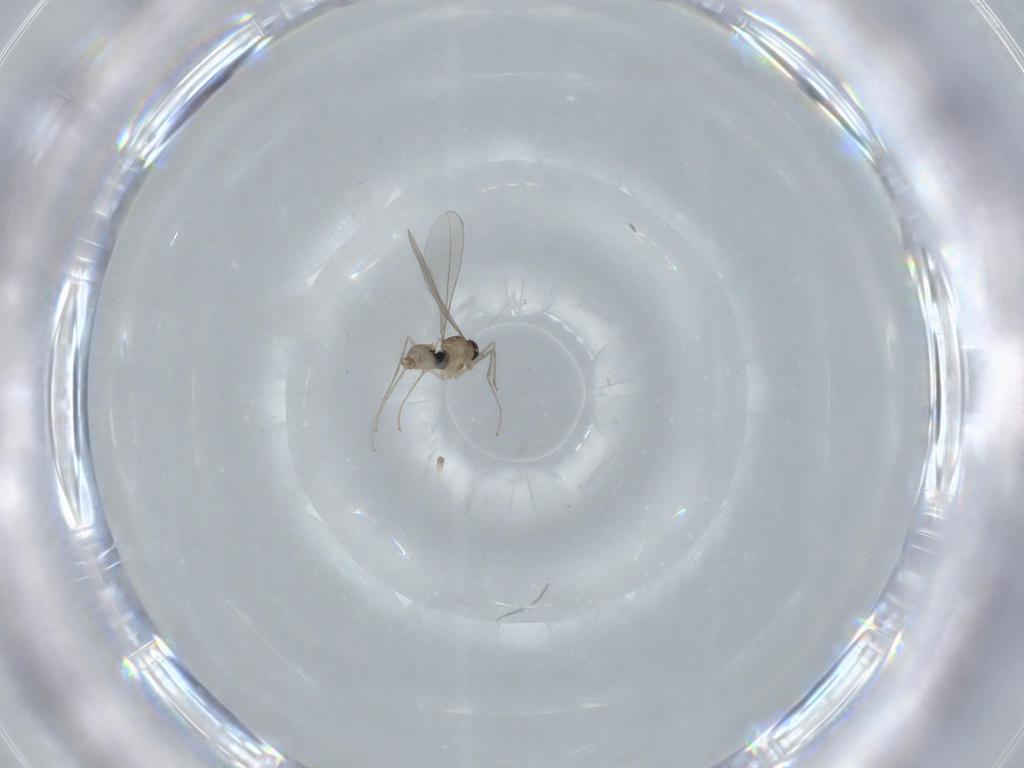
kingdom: Animalia
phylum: Arthropoda
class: Insecta
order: Diptera
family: Cecidomyiidae
